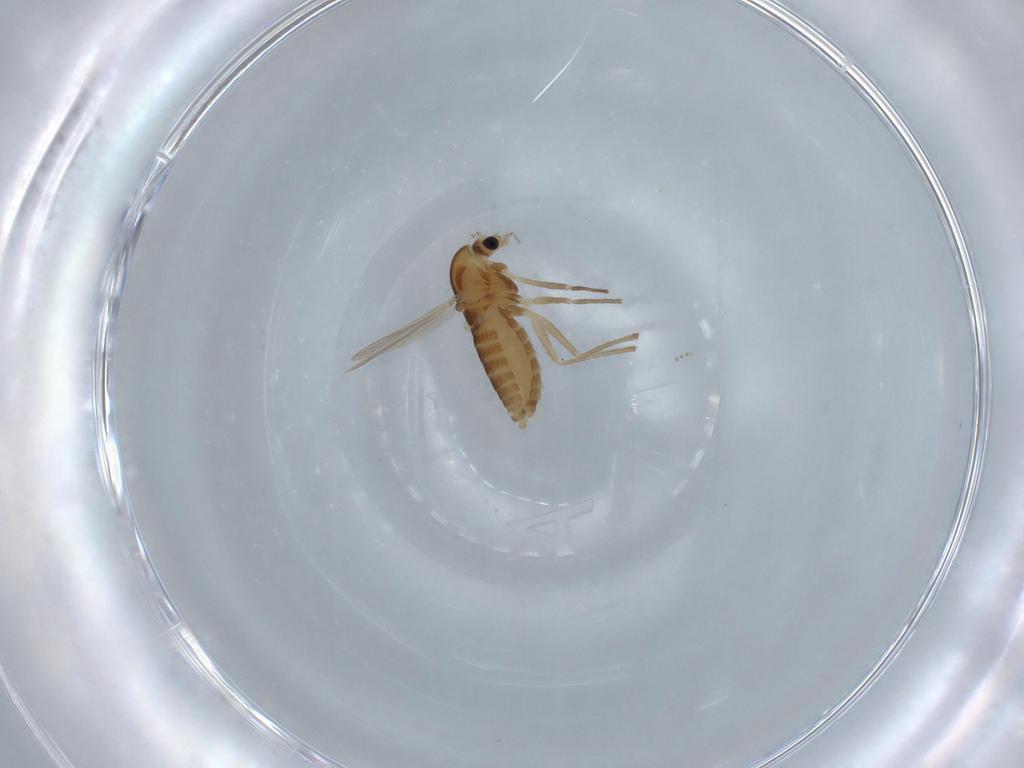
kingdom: Animalia
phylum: Arthropoda
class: Insecta
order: Diptera
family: Chironomidae
